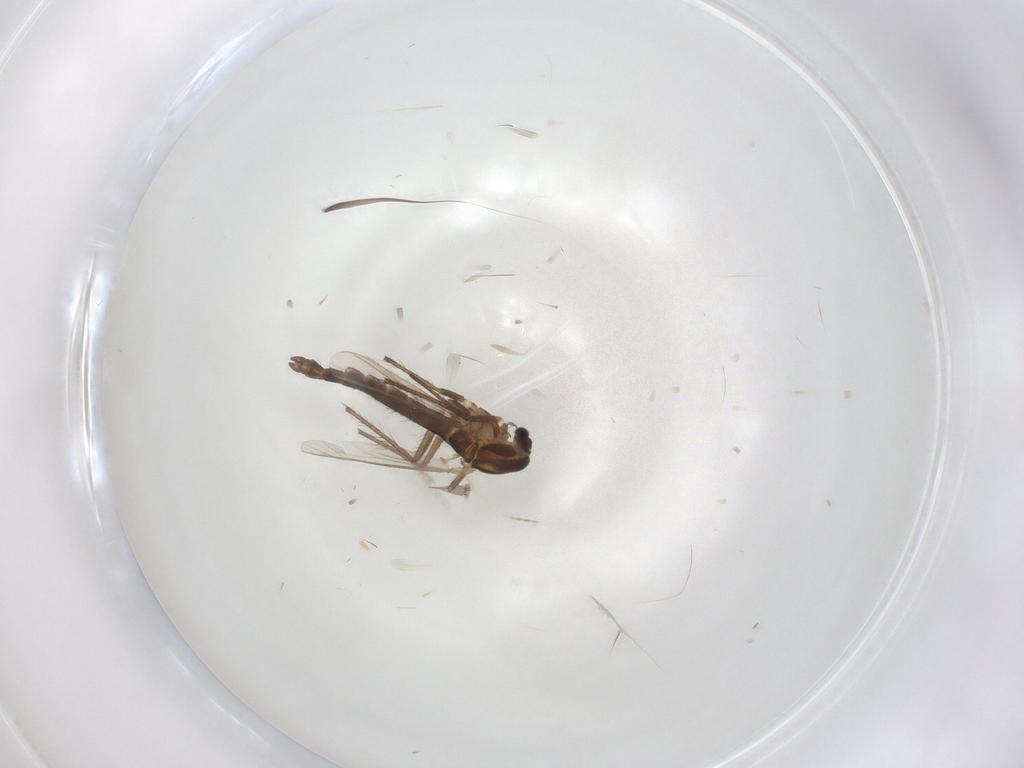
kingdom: Animalia
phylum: Arthropoda
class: Insecta
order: Diptera
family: Chironomidae
